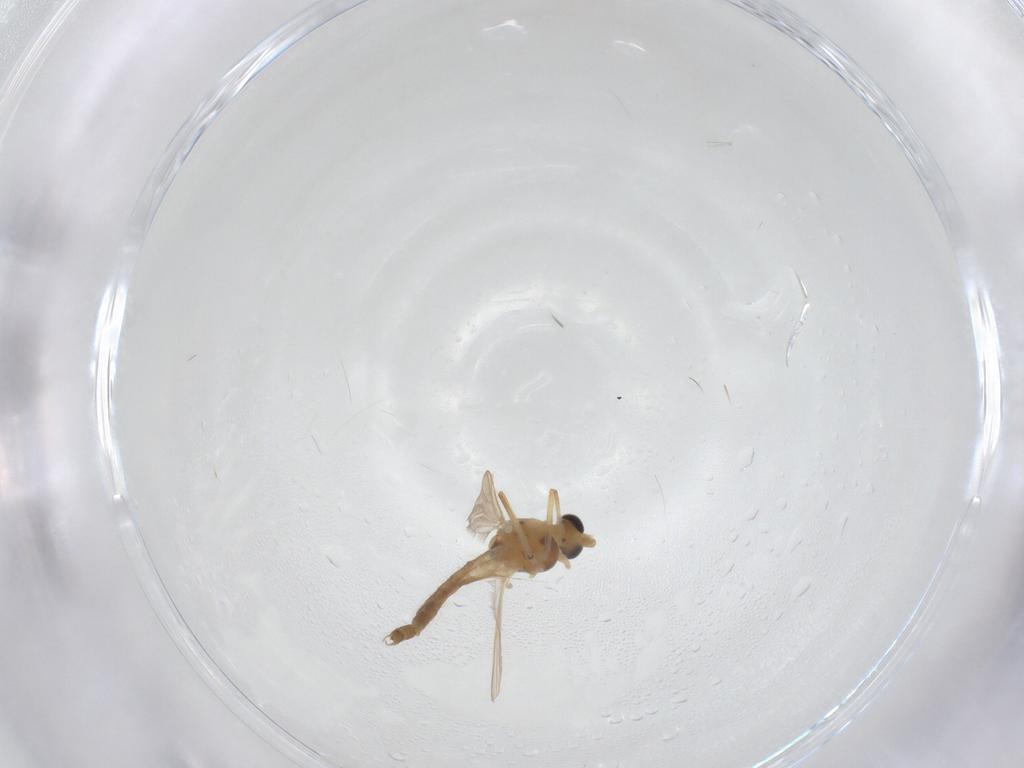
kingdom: Animalia
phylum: Arthropoda
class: Insecta
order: Diptera
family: Chironomidae
